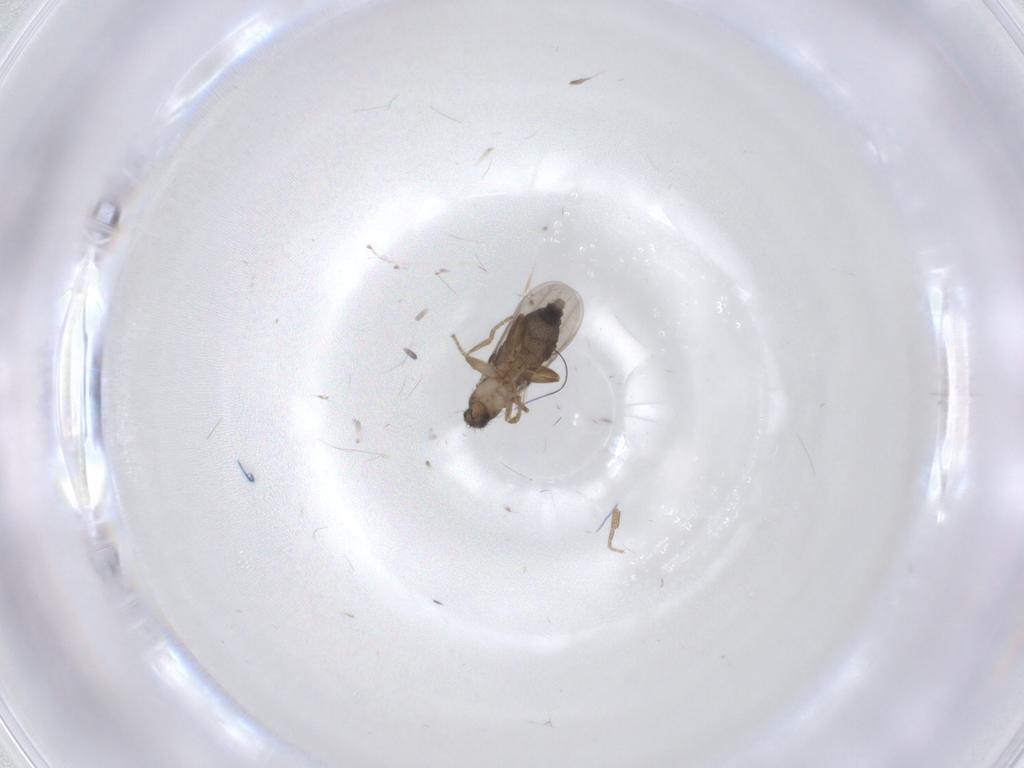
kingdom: Animalia
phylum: Arthropoda
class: Insecta
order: Diptera
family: Phoridae
